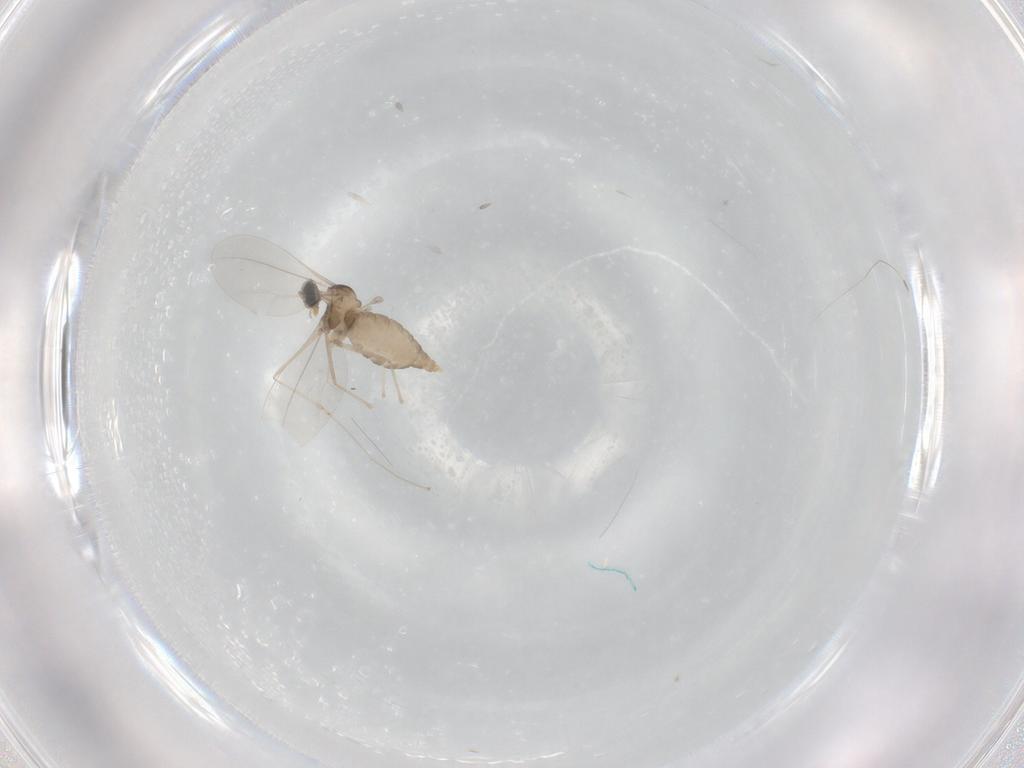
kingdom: Animalia
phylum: Arthropoda
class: Insecta
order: Diptera
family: Cecidomyiidae
